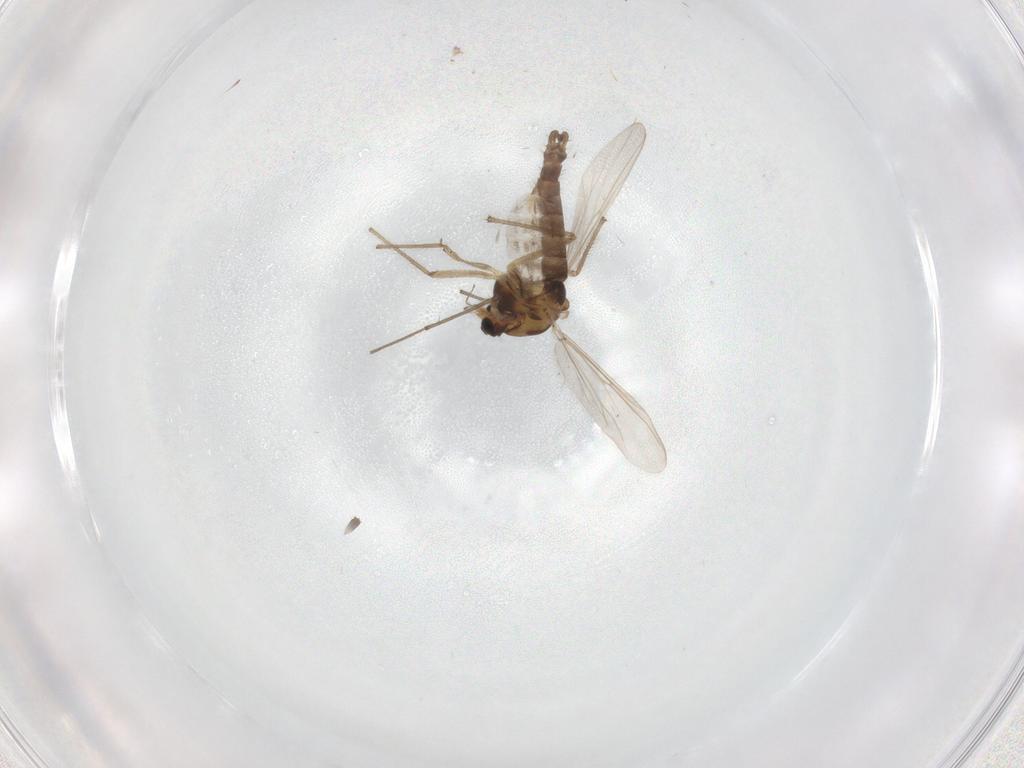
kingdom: Animalia
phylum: Arthropoda
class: Insecta
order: Diptera
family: Chironomidae
